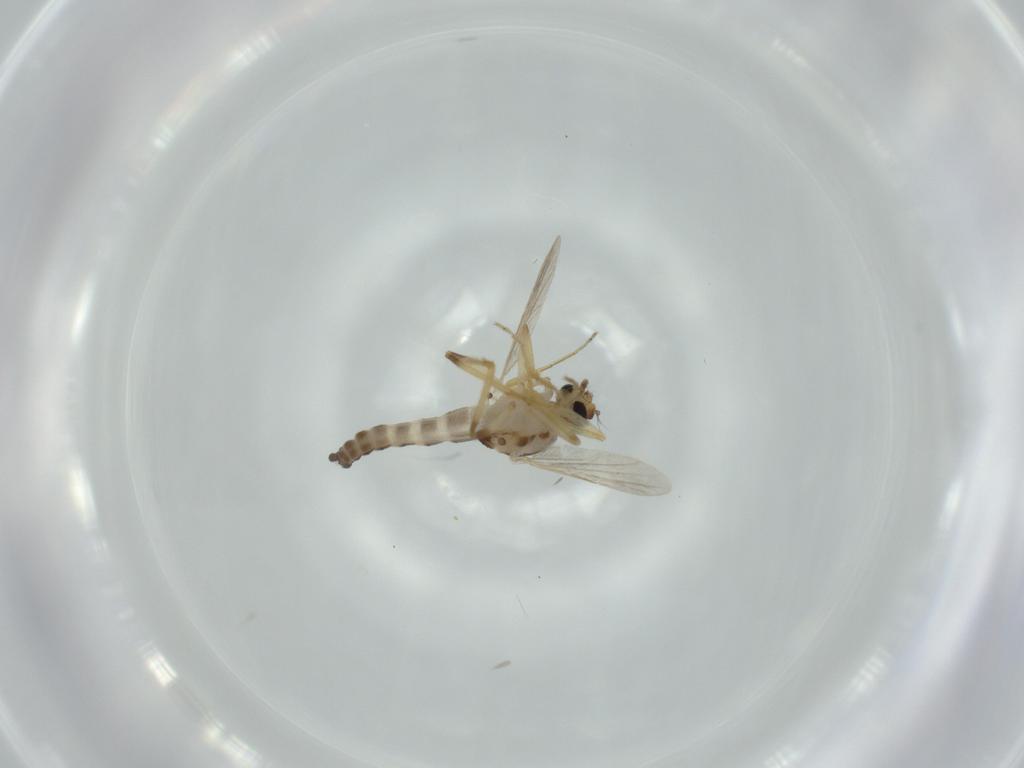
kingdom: Animalia
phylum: Arthropoda
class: Insecta
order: Diptera
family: Ceratopogonidae
